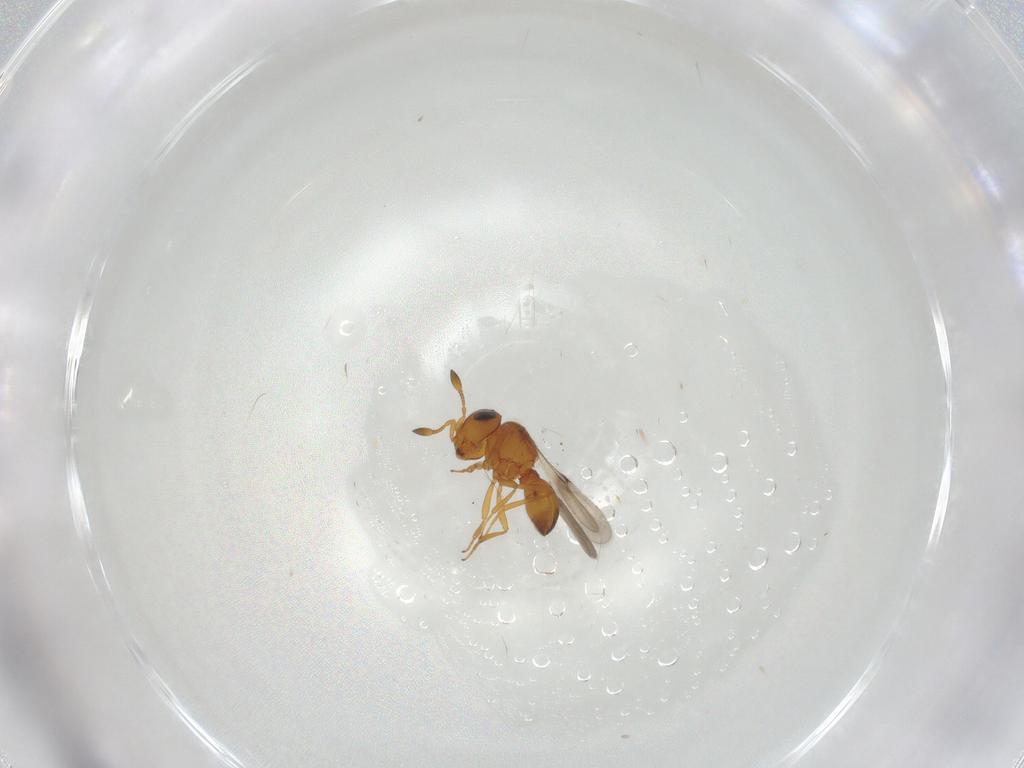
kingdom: Animalia
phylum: Arthropoda
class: Insecta
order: Hymenoptera
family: Scelionidae
